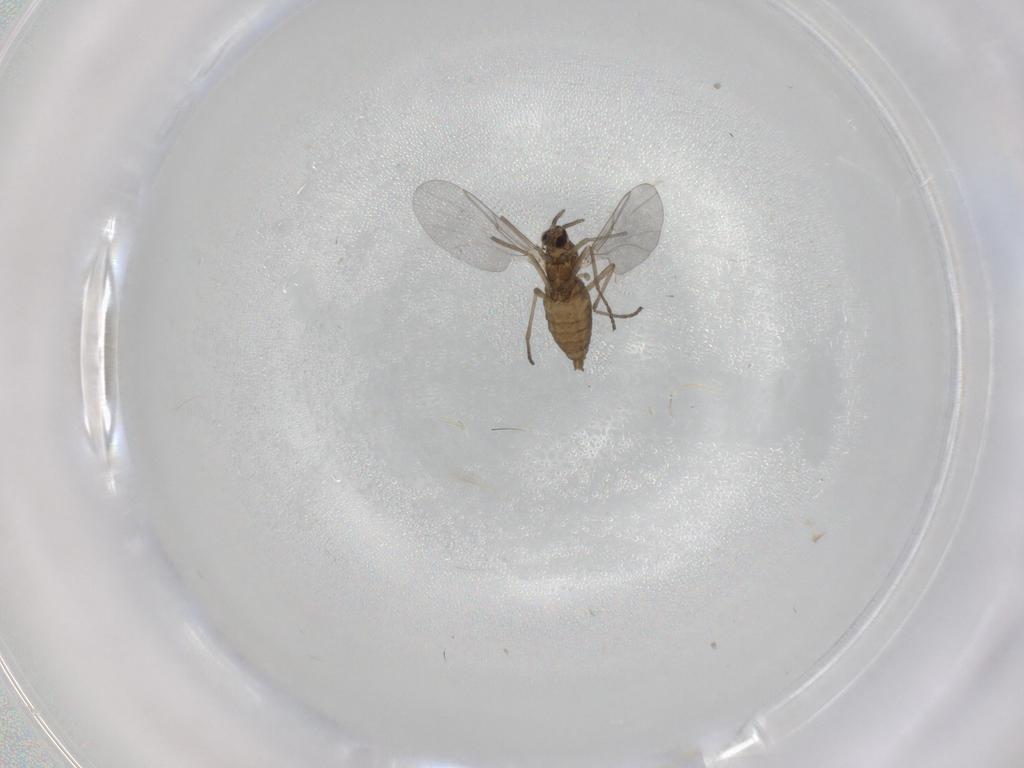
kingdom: Animalia
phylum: Arthropoda
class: Insecta
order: Diptera
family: Cecidomyiidae
